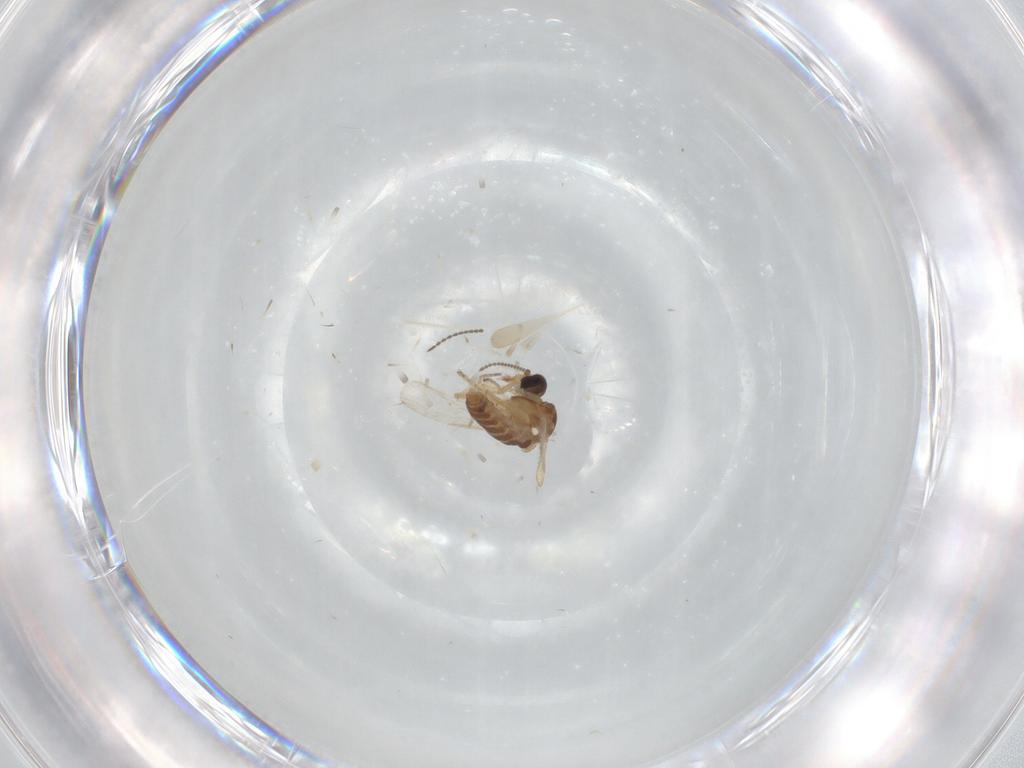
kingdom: Animalia
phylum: Arthropoda
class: Insecta
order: Diptera
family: Ceratopogonidae
